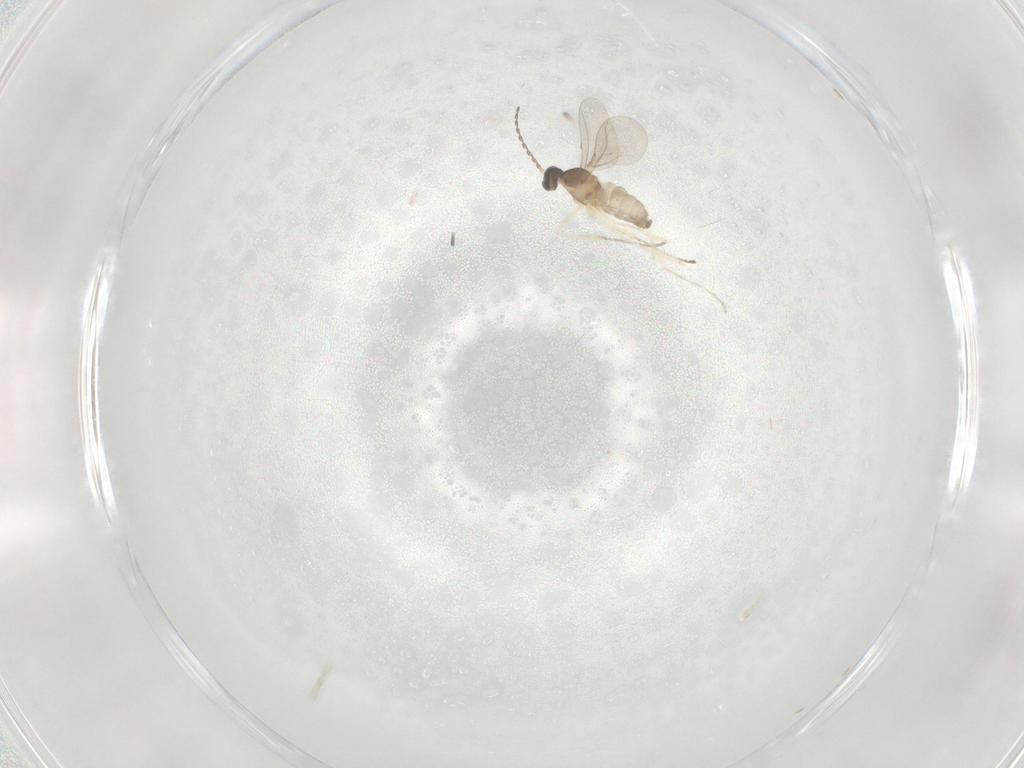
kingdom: Animalia
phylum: Arthropoda
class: Insecta
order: Diptera
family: Cecidomyiidae
